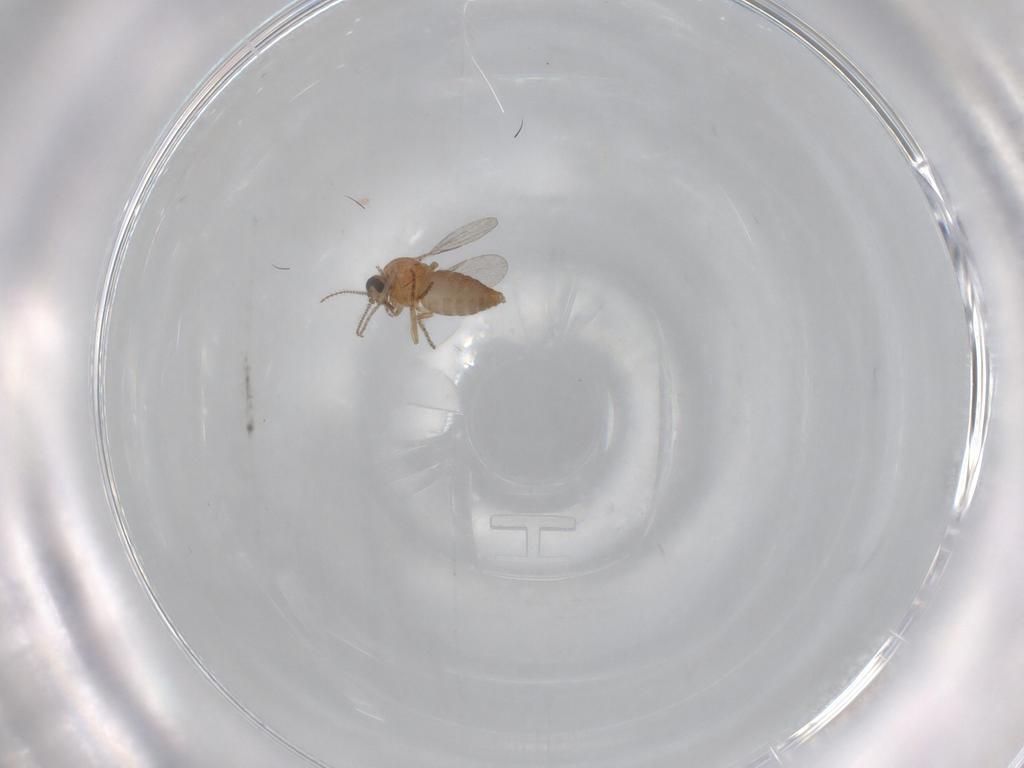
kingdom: Animalia
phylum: Arthropoda
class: Insecta
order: Diptera
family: Ceratopogonidae
